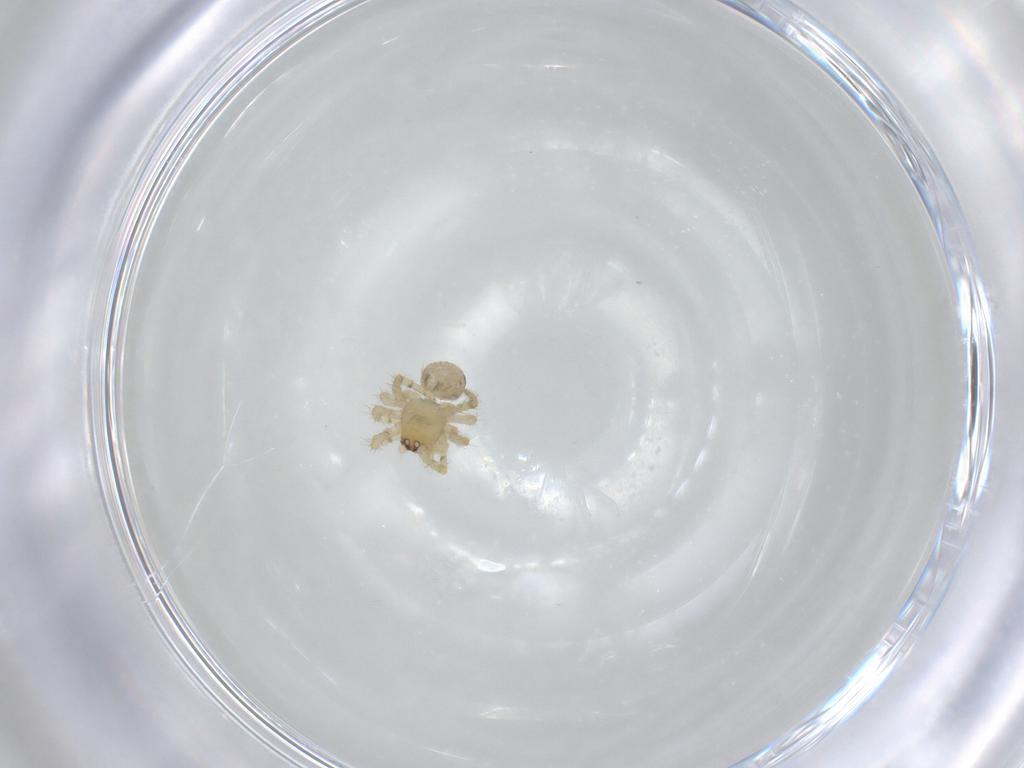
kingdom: Animalia
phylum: Arthropoda
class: Arachnida
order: Araneae
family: Theridiidae
